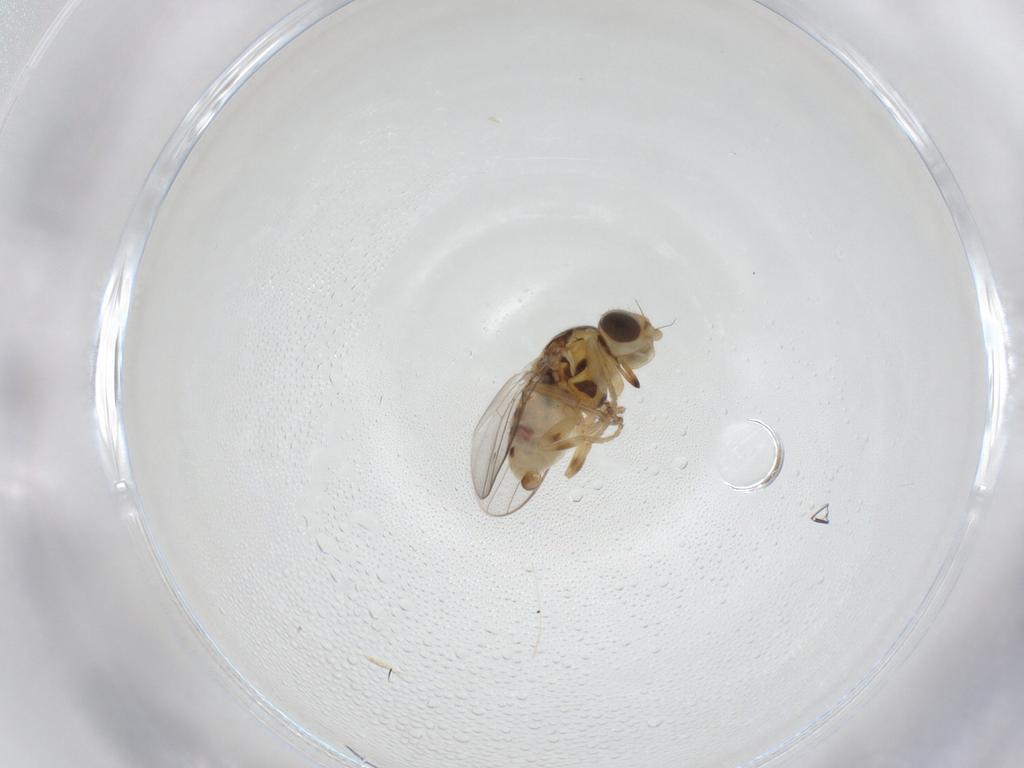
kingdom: Animalia
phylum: Arthropoda
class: Insecta
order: Diptera
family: Chloropidae
